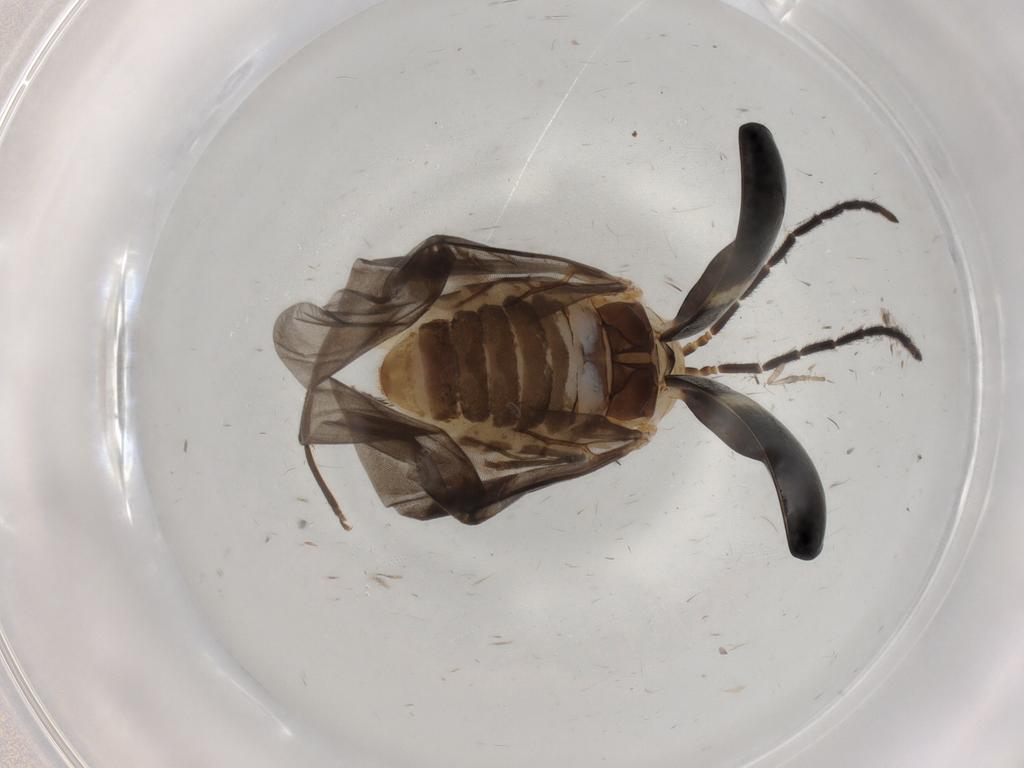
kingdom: Animalia
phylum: Arthropoda
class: Insecta
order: Coleoptera
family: Chrysomelidae
